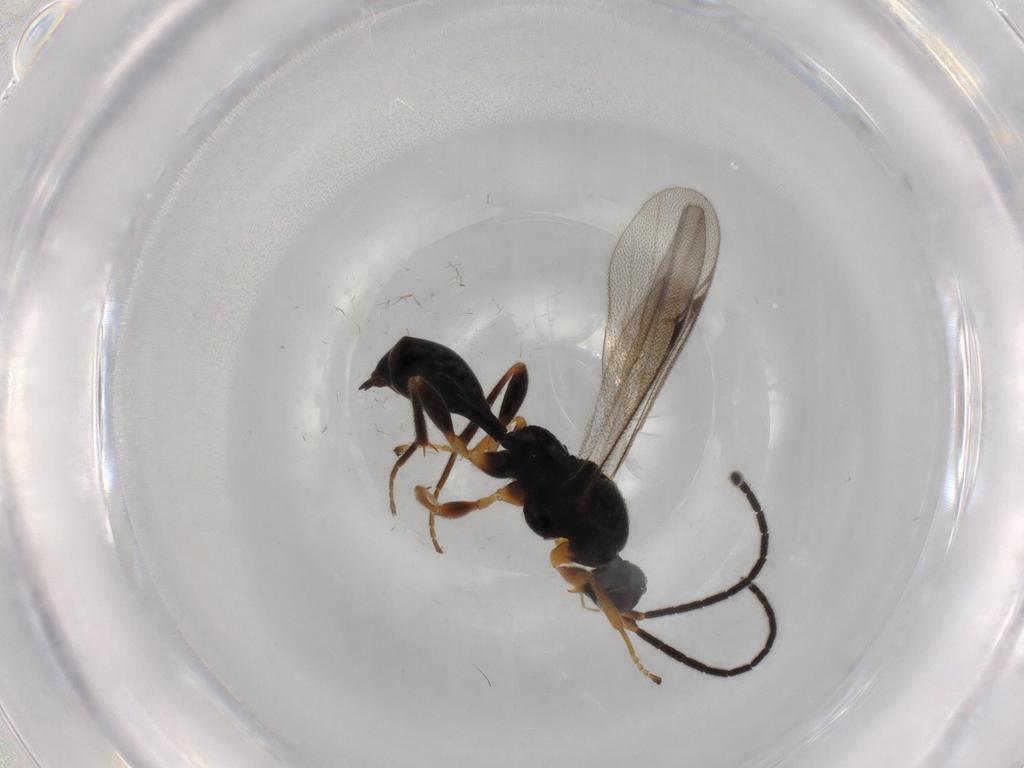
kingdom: Animalia
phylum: Arthropoda
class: Insecta
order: Hymenoptera
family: Proctotrupidae
